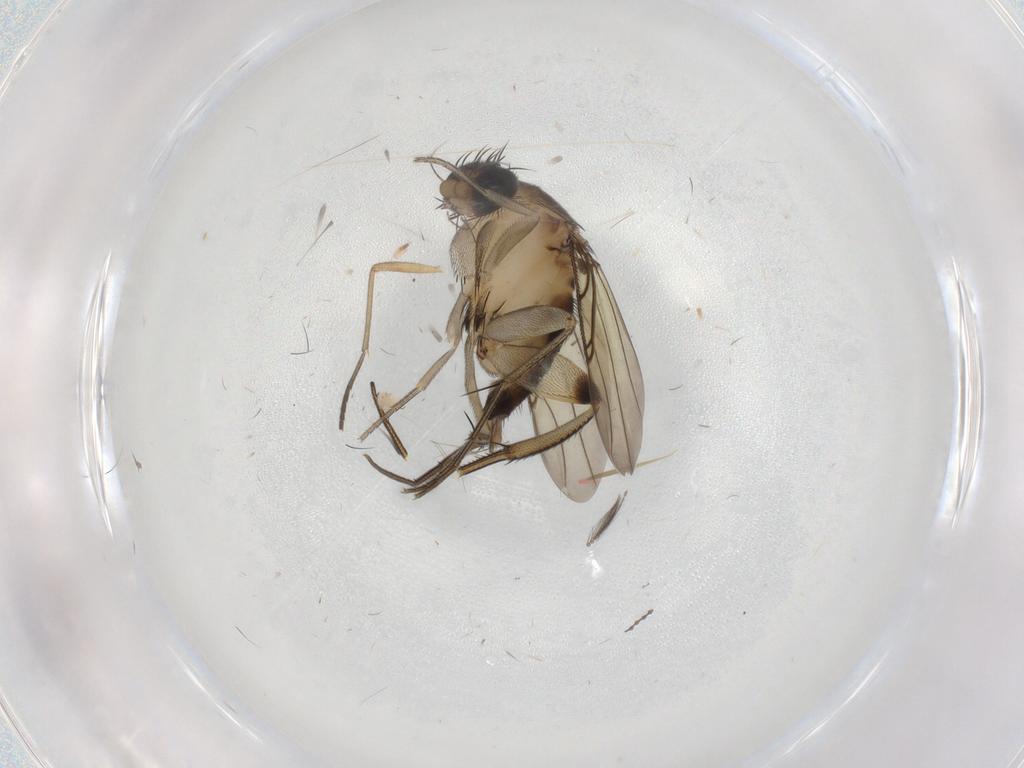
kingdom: Animalia
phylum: Arthropoda
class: Insecta
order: Diptera
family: Phoridae
